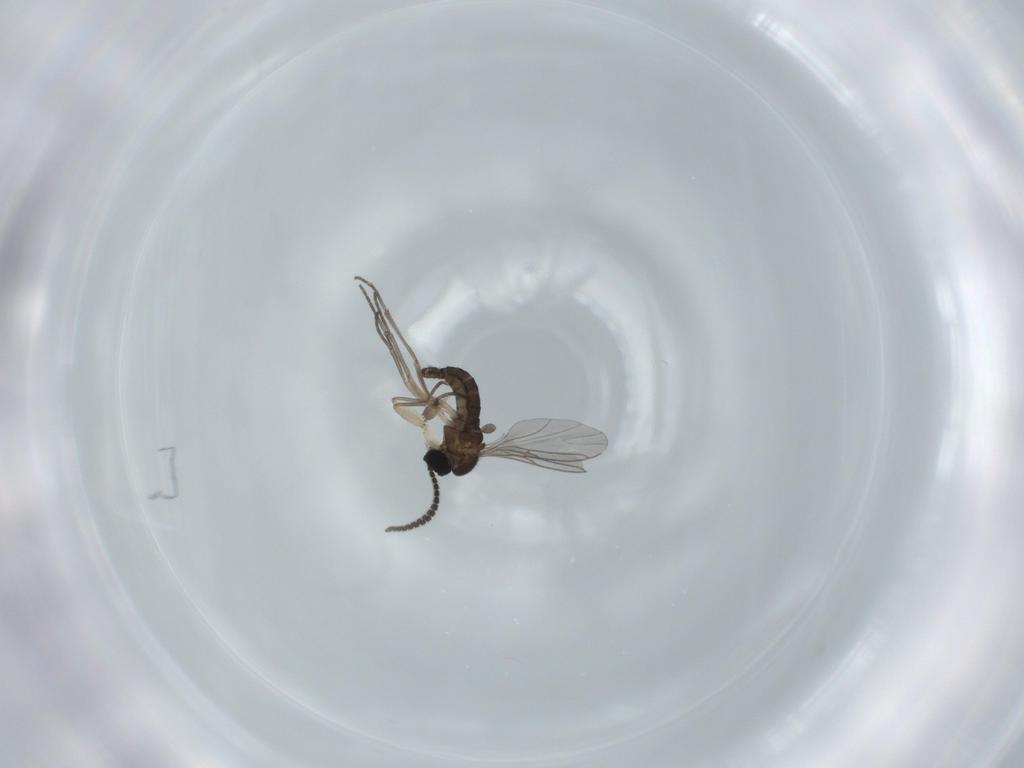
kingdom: Animalia
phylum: Arthropoda
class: Insecta
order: Diptera
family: Sciaridae
